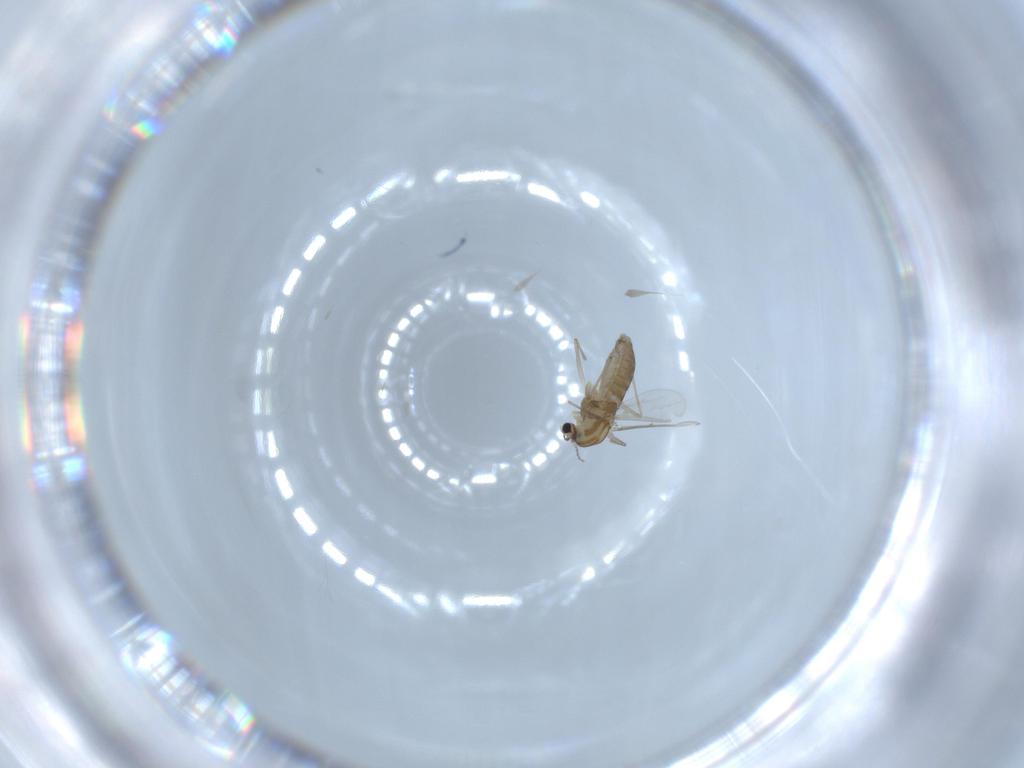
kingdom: Animalia
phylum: Arthropoda
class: Insecta
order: Diptera
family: Chironomidae
